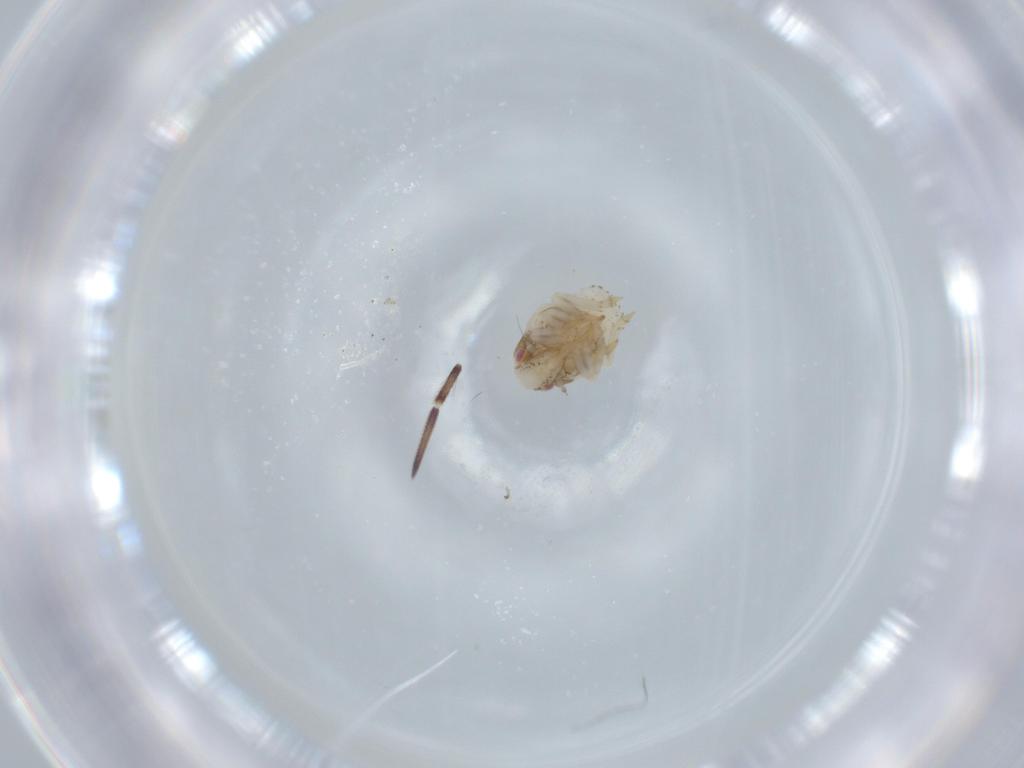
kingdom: Animalia
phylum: Arthropoda
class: Insecta
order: Hemiptera
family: Acanaloniidae
